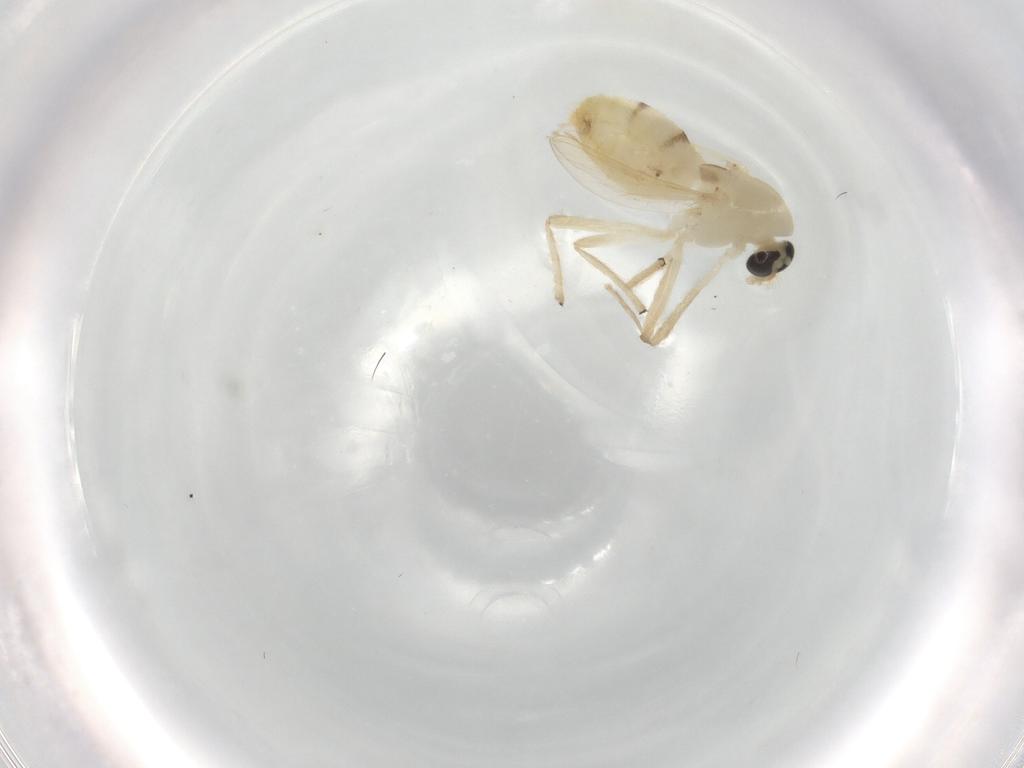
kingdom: Animalia
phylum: Arthropoda
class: Insecta
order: Diptera
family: Chironomidae
